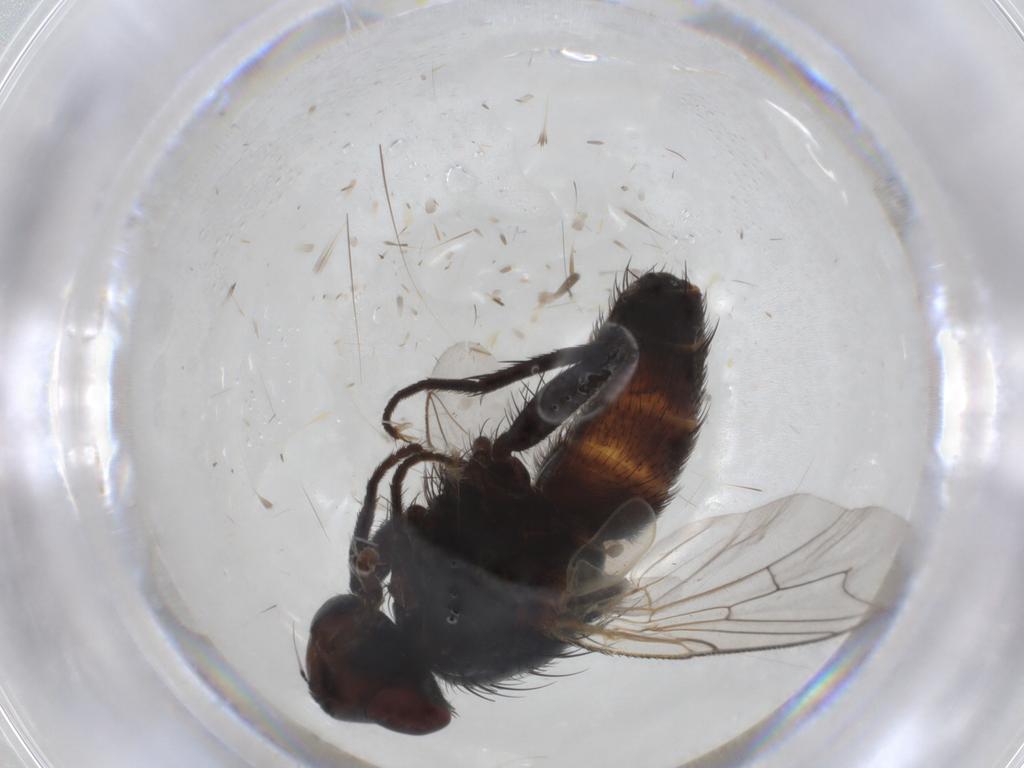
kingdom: Animalia
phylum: Arthropoda
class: Insecta
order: Diptera
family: Sarcophagidae
